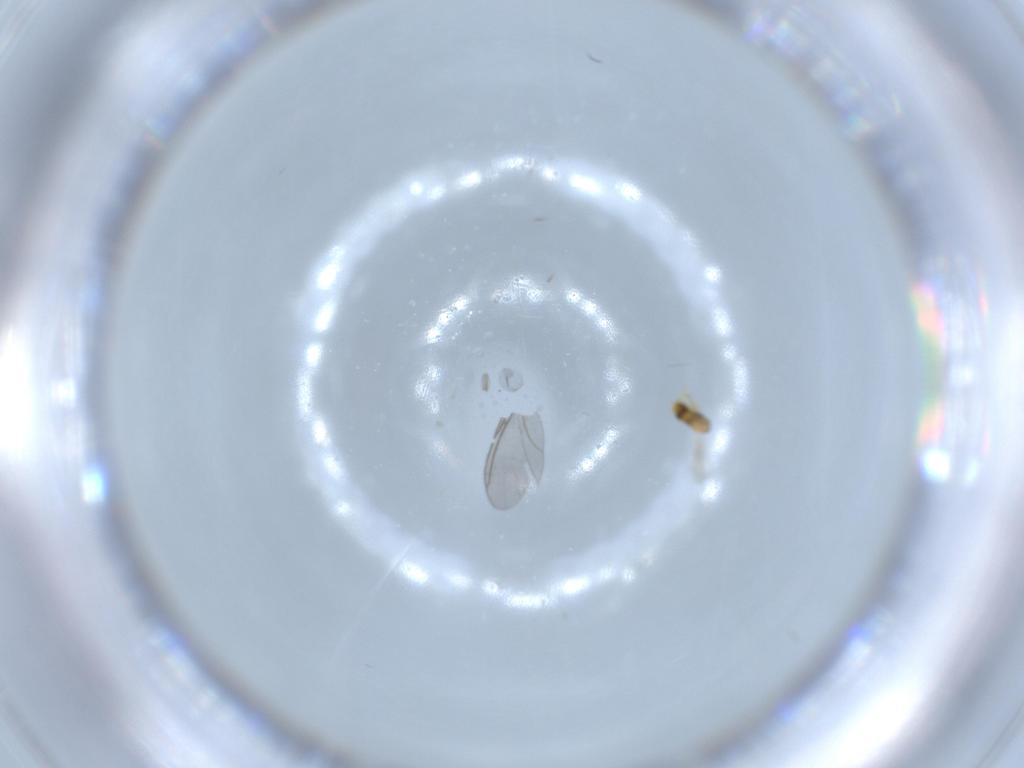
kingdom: Animalia
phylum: Arthropoda
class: Insecta
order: Diptera
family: Sciaridae
